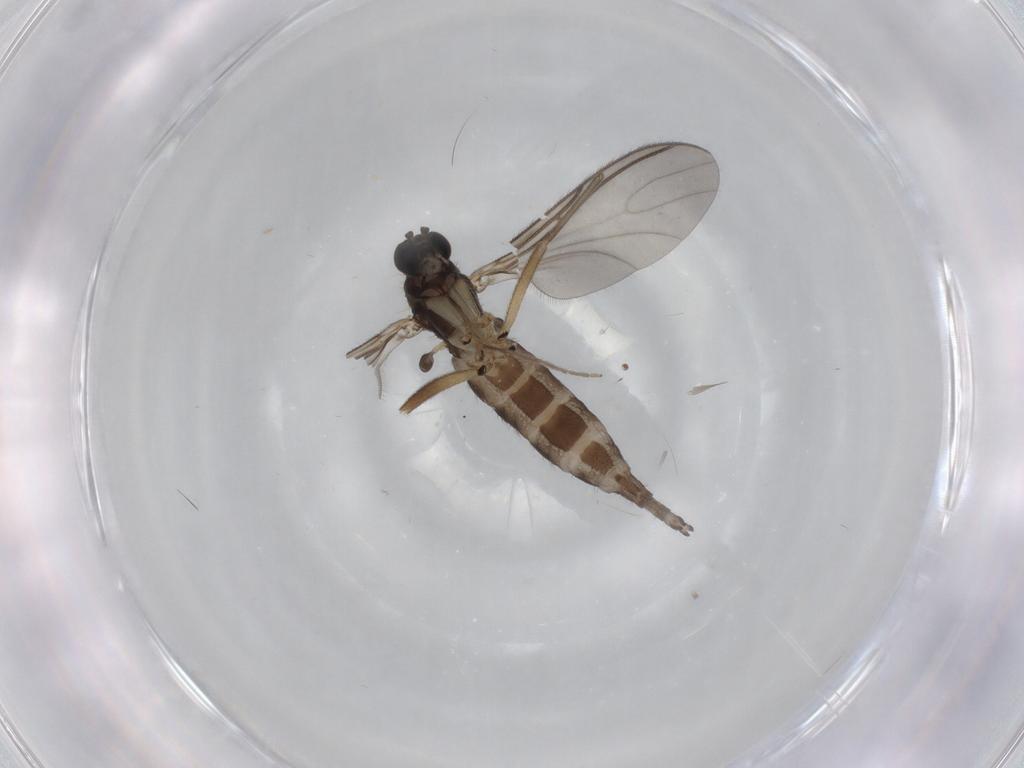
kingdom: Animalia
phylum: Arthropoda
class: Insecta
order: Diptera
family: Sciaridae
